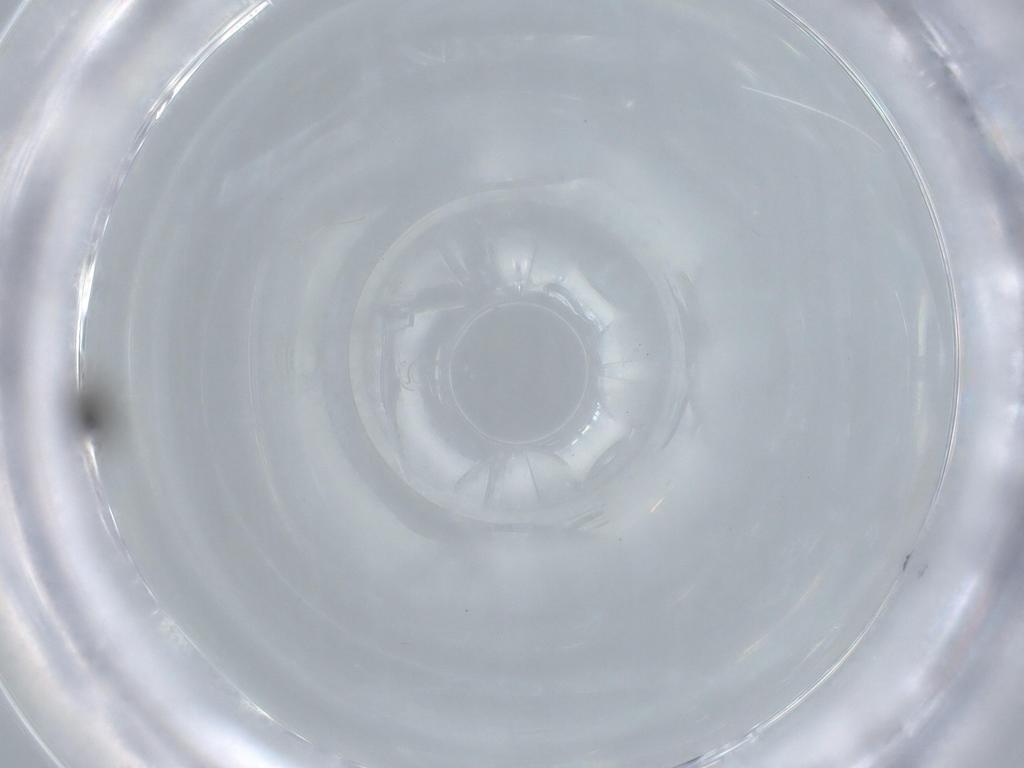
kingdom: Animalia
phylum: Arthropoda
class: Insecta
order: Diptera
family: Sciaridae
